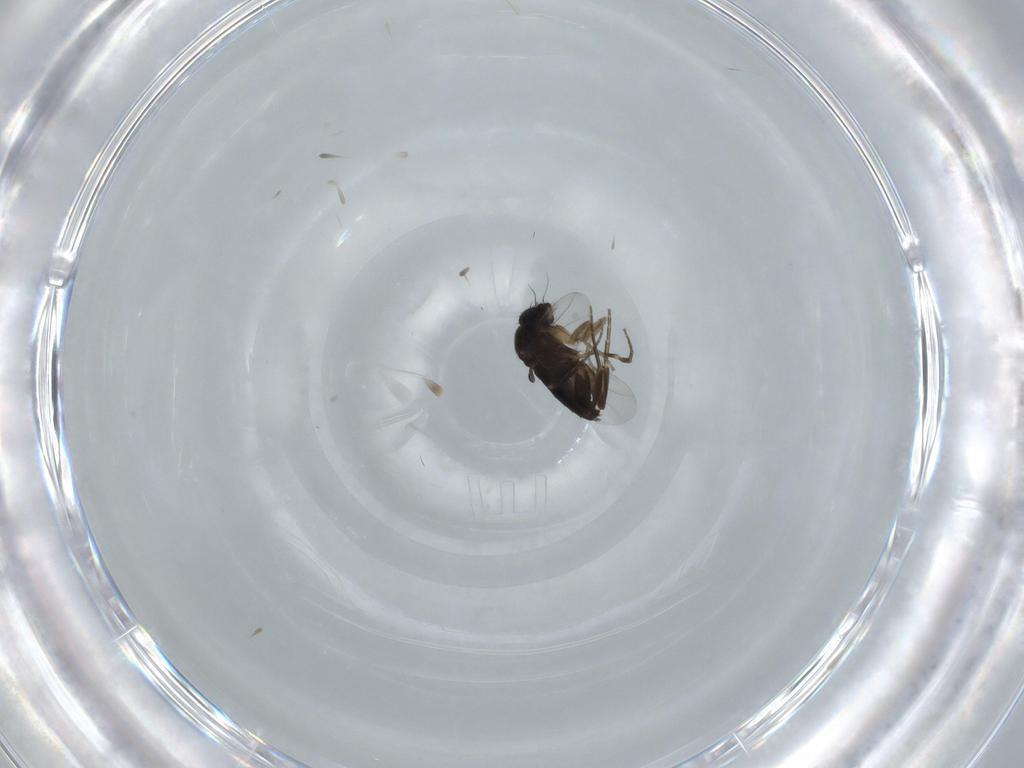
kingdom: Animalia
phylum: Arthropoda
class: Insecta
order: Diptera
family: Phoridae
